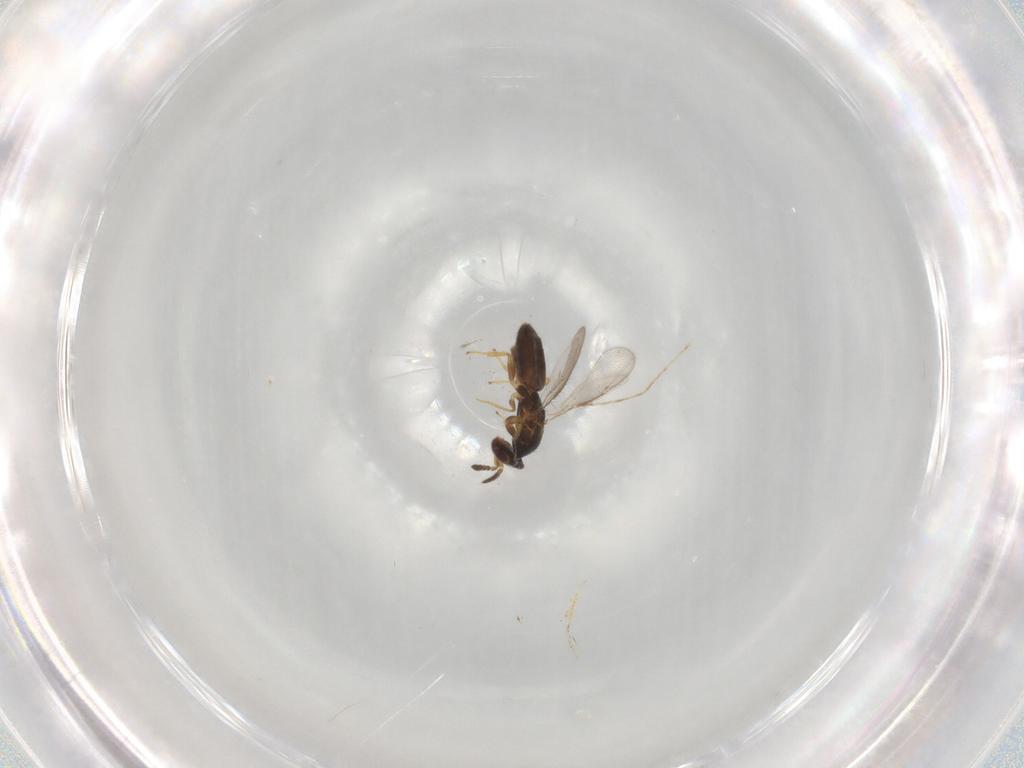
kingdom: Animalia
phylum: Arthropoda
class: Insecta
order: Hymenoptera
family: Eulophidae
